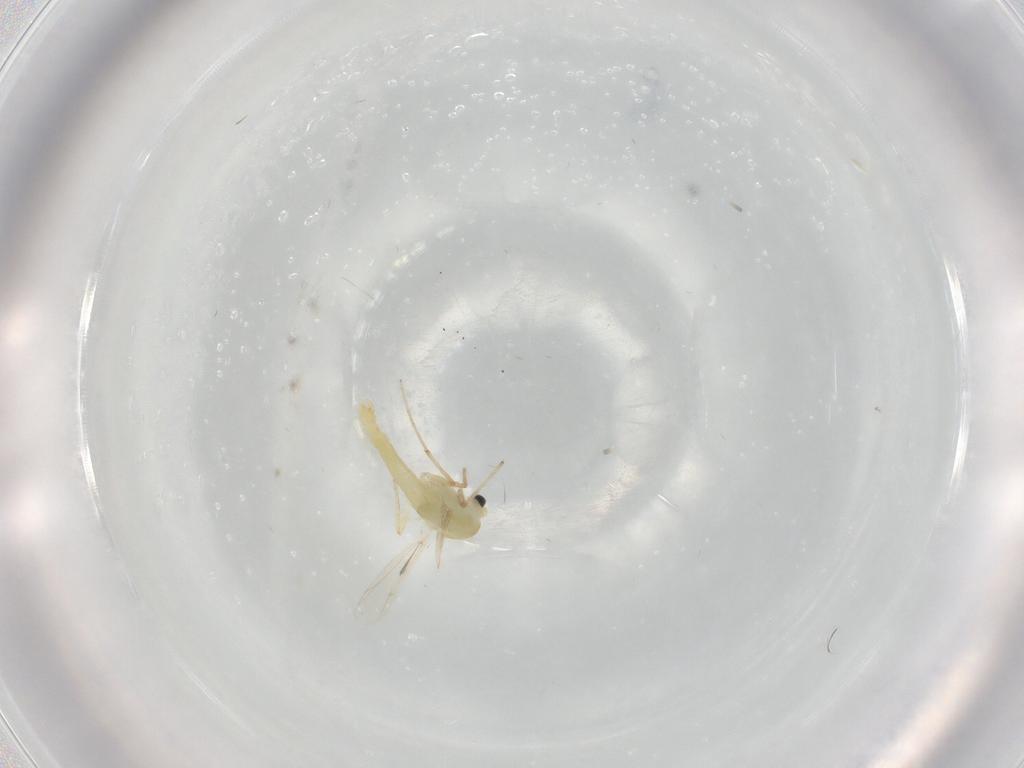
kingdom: Animalia
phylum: Arthropoda
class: Insecta
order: Diptera
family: Chironomidae
